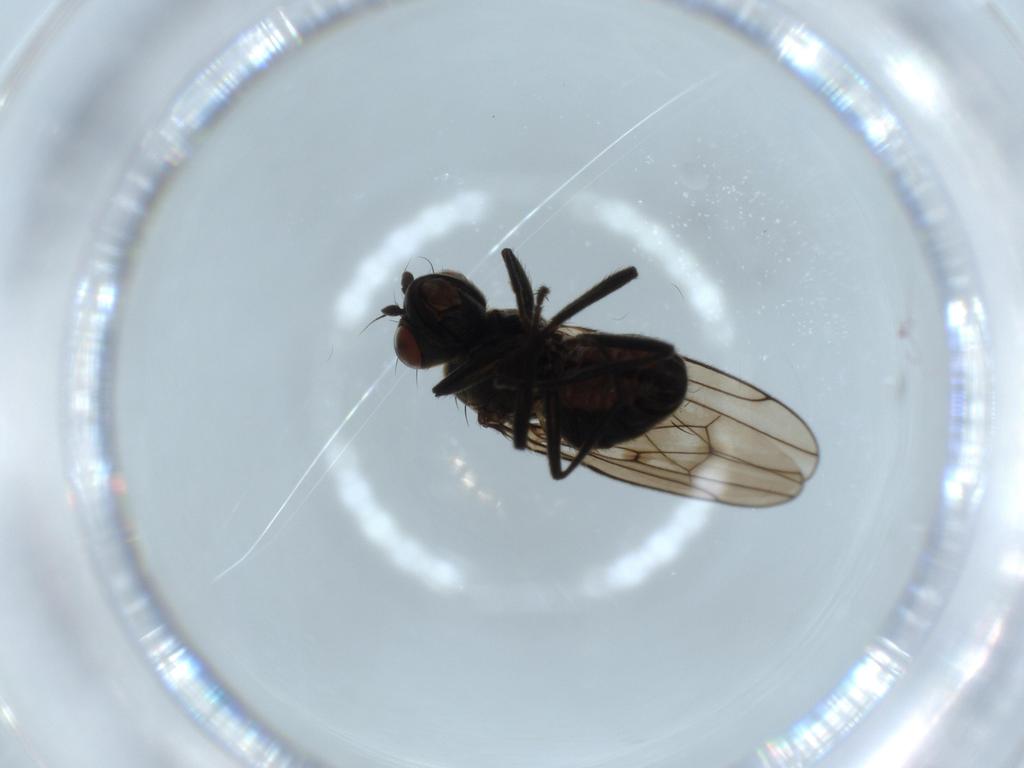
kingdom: Animalia
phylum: Arthropoda
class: Insecta
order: Diptera
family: Ephydridae
